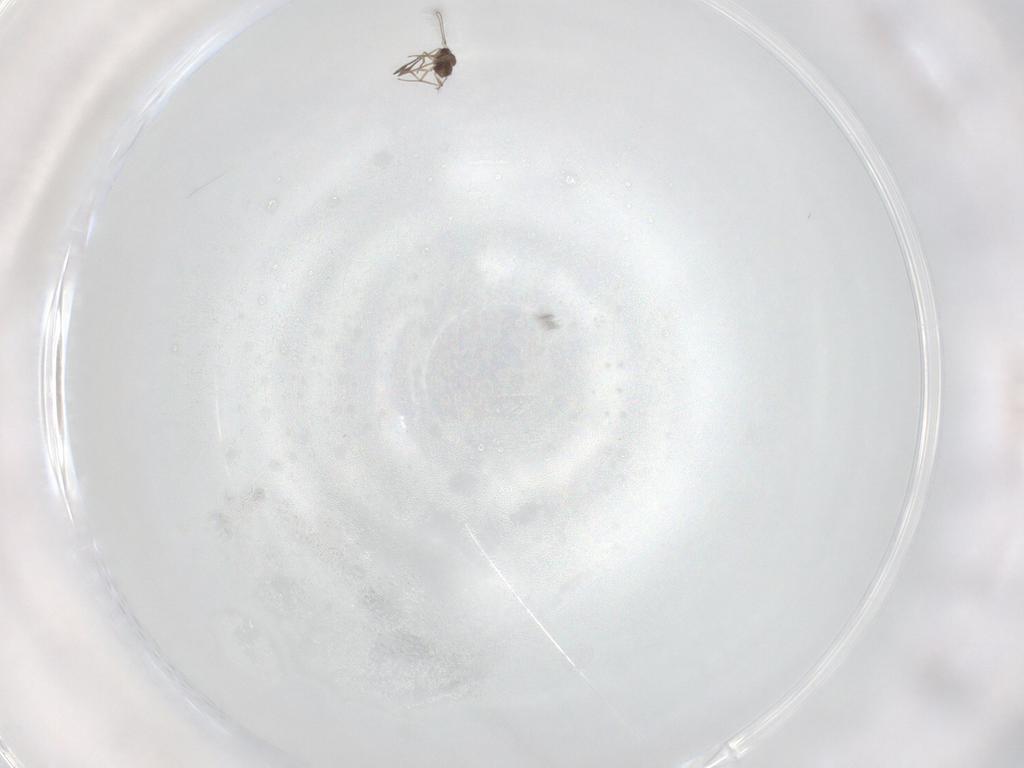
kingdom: Animalia
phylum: Arthropoda
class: Insecta
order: Hymenoptera
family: Mymaridae
